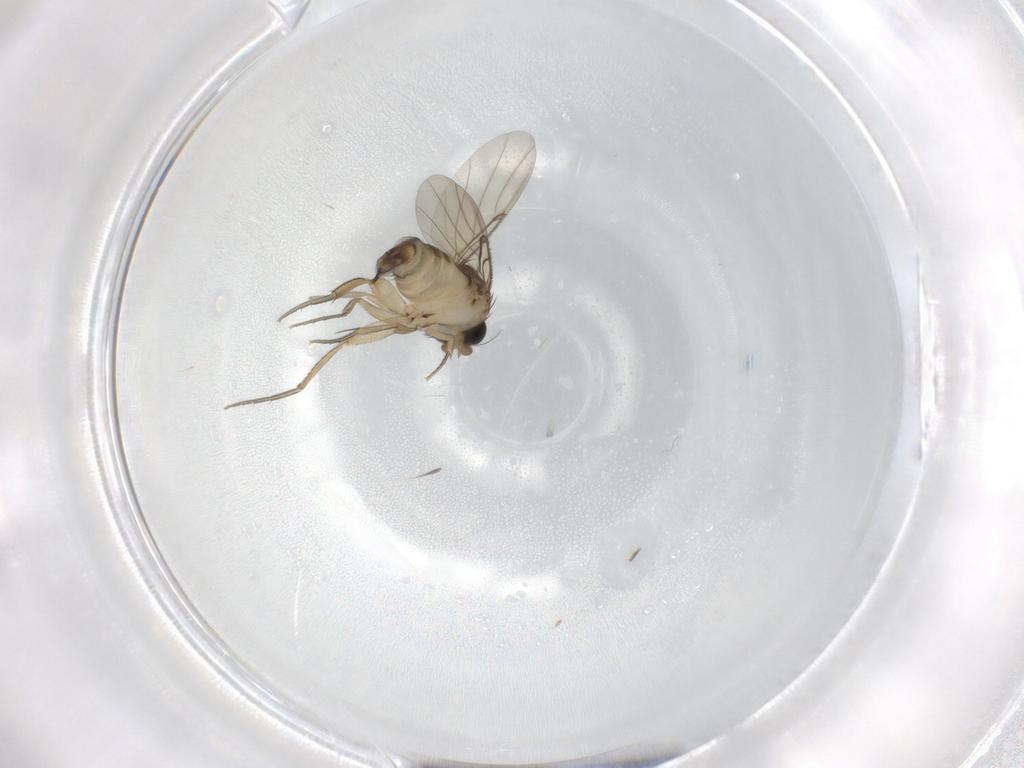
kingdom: Animalia
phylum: Arthropoda
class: Insecta
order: Diptera
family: Phoridae
